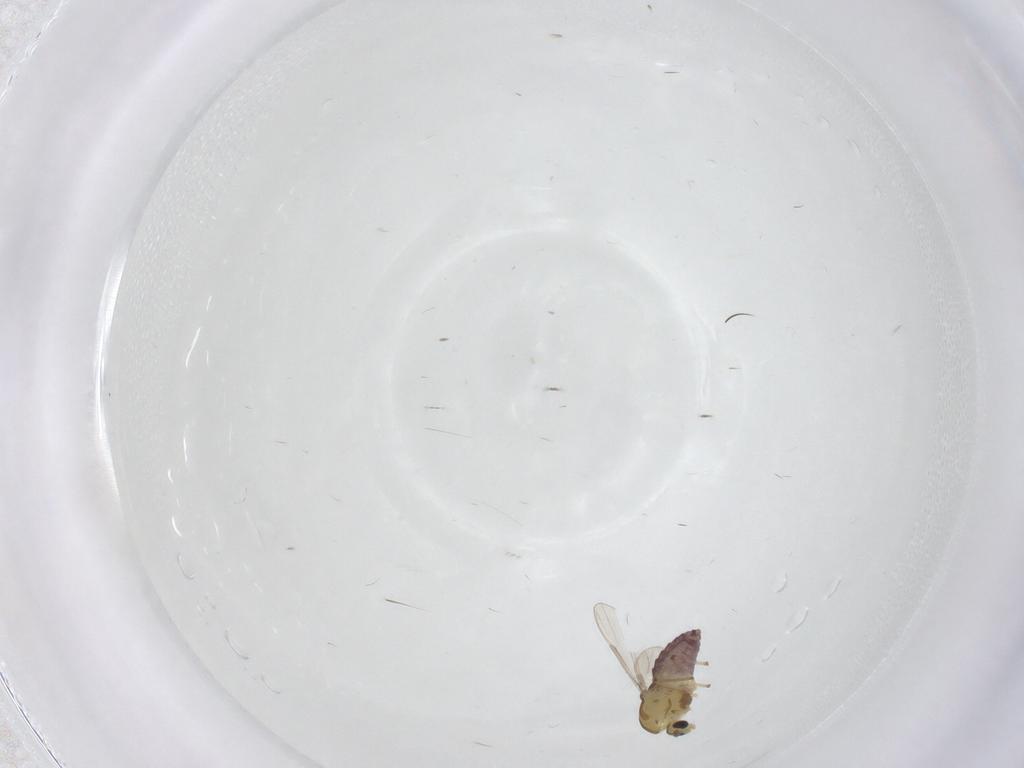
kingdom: Animalia
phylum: Arthropoda
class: Insecta
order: Diptera
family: Chironomidae
